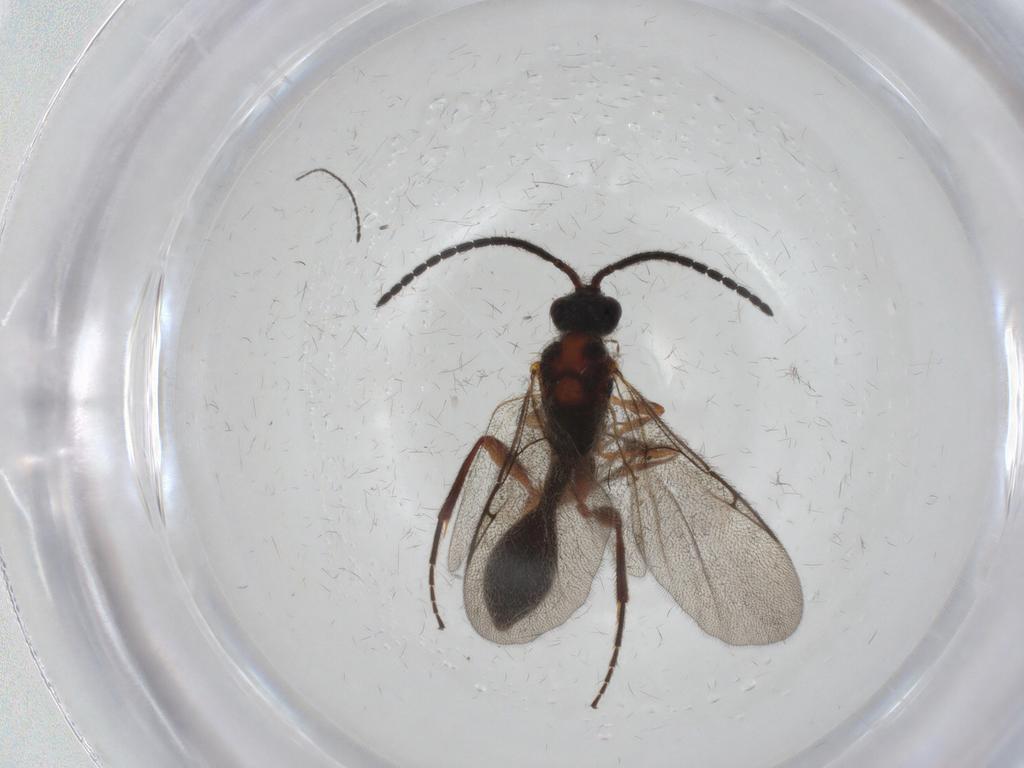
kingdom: Animalia
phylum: Arthropoda
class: Insecta
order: Hymenoptera
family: Diapriidae
